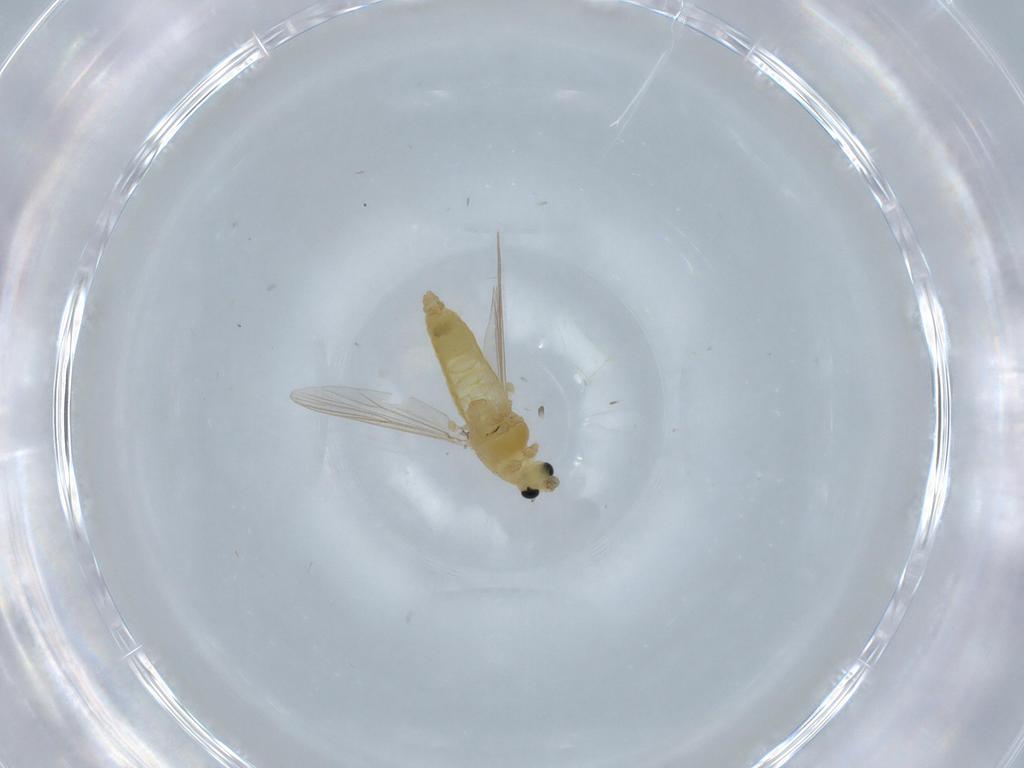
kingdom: Animalia
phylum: Arthropoda
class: Insecta
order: Diptera
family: Chironomidae
